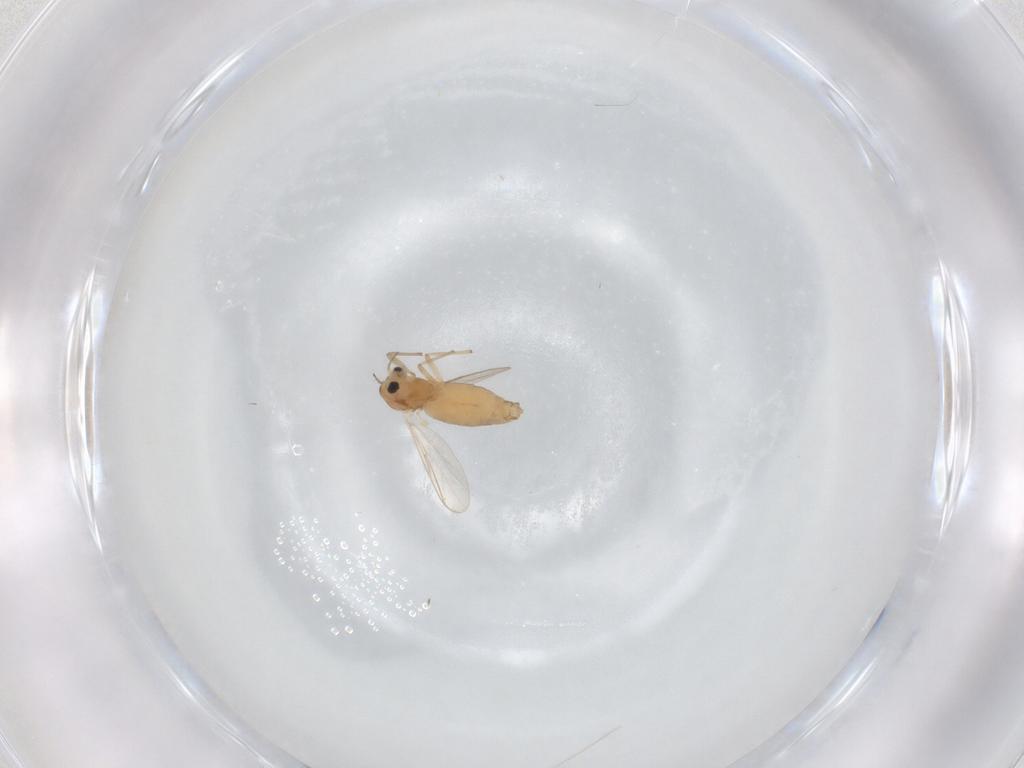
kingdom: Animalia
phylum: Arthropoda
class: Insecta
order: Diptera
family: Chironomidae
